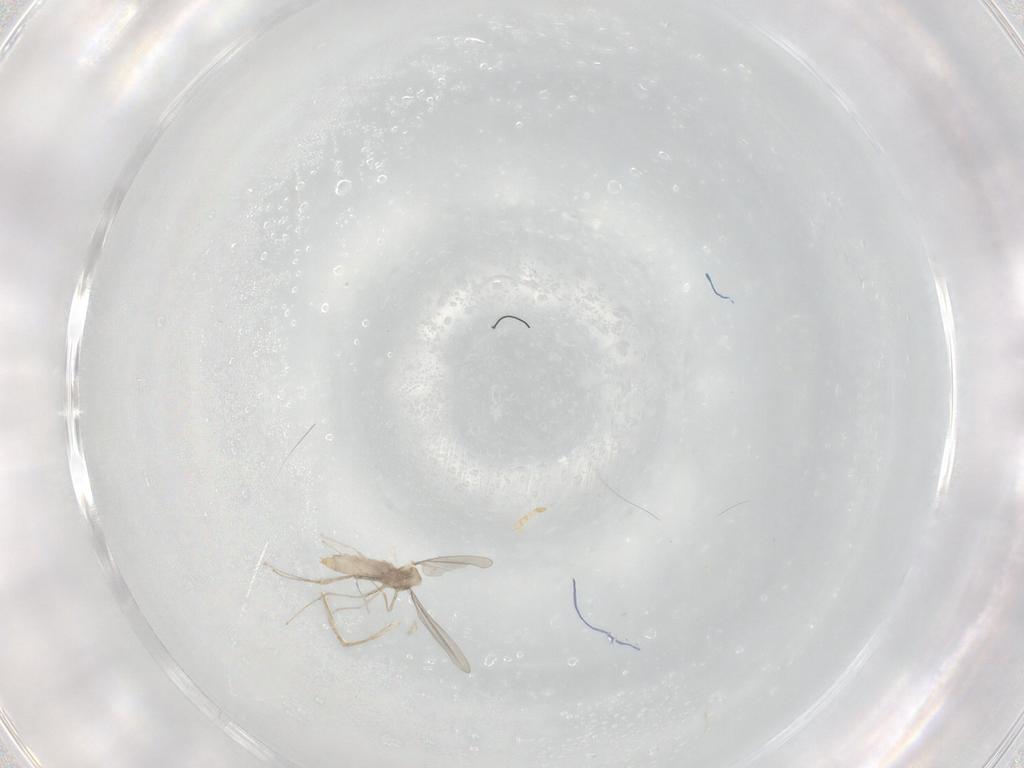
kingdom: Animalia
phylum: Arthropoda
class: Insecta
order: Diptera
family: Cecidomyiidae
